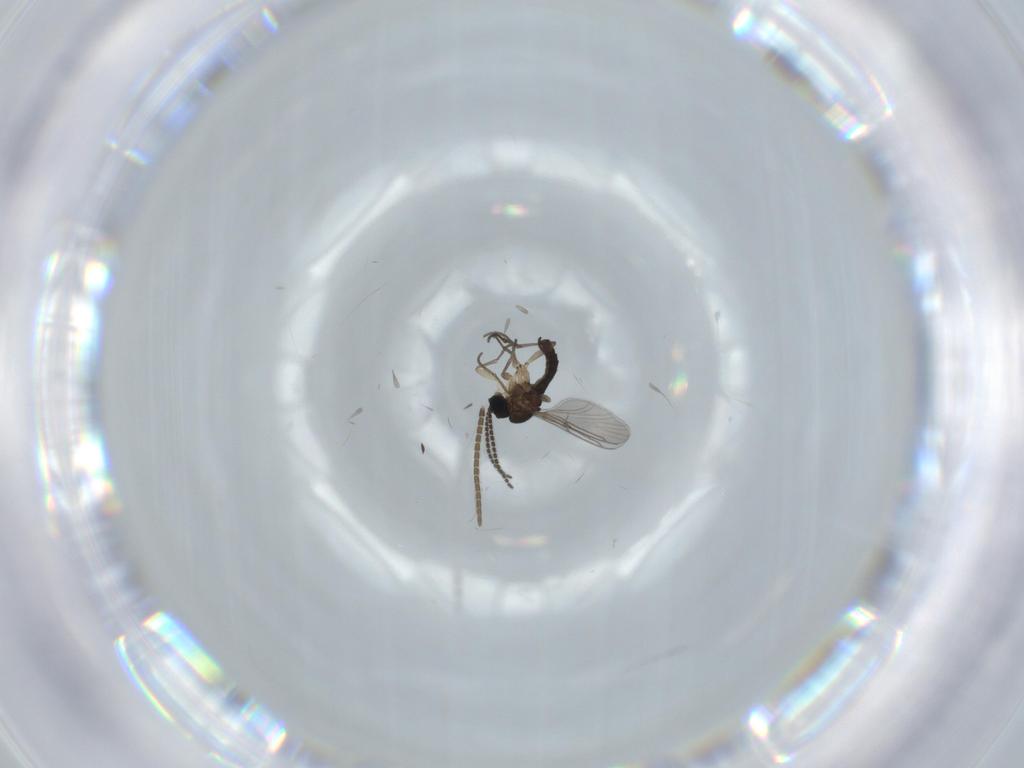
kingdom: Animalia
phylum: Arthropoda
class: Insecta
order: Diptera
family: Sciaridae
